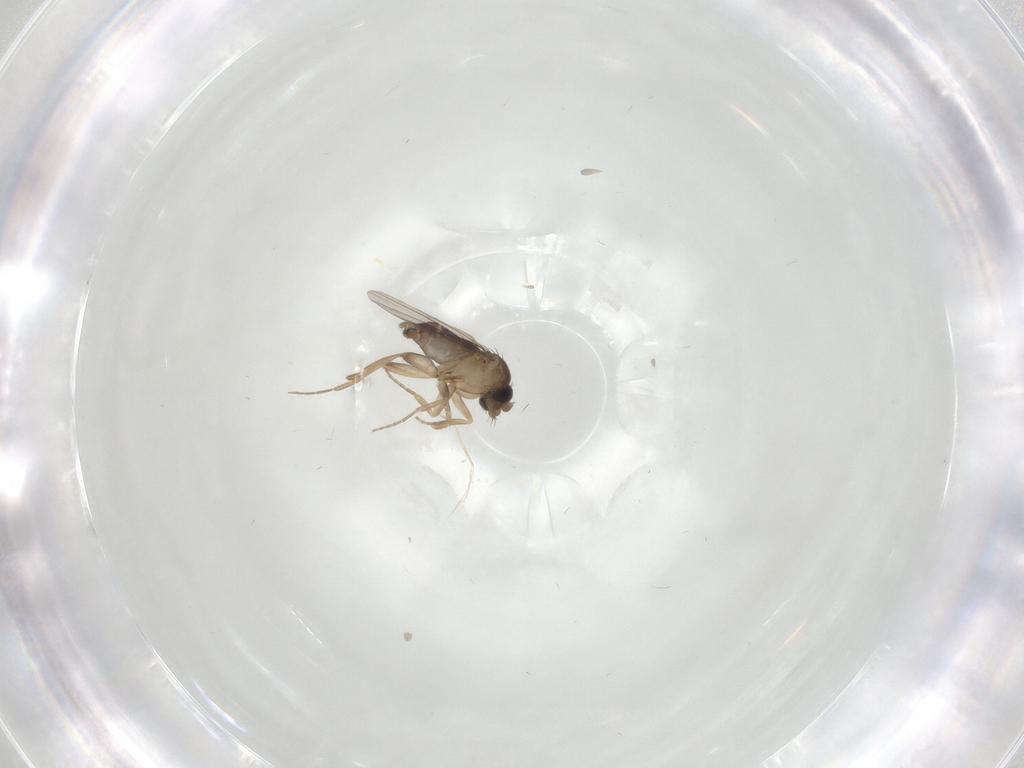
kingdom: Animalia
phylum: Arthropoda
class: Insecta
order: Diptera
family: Phoridae
